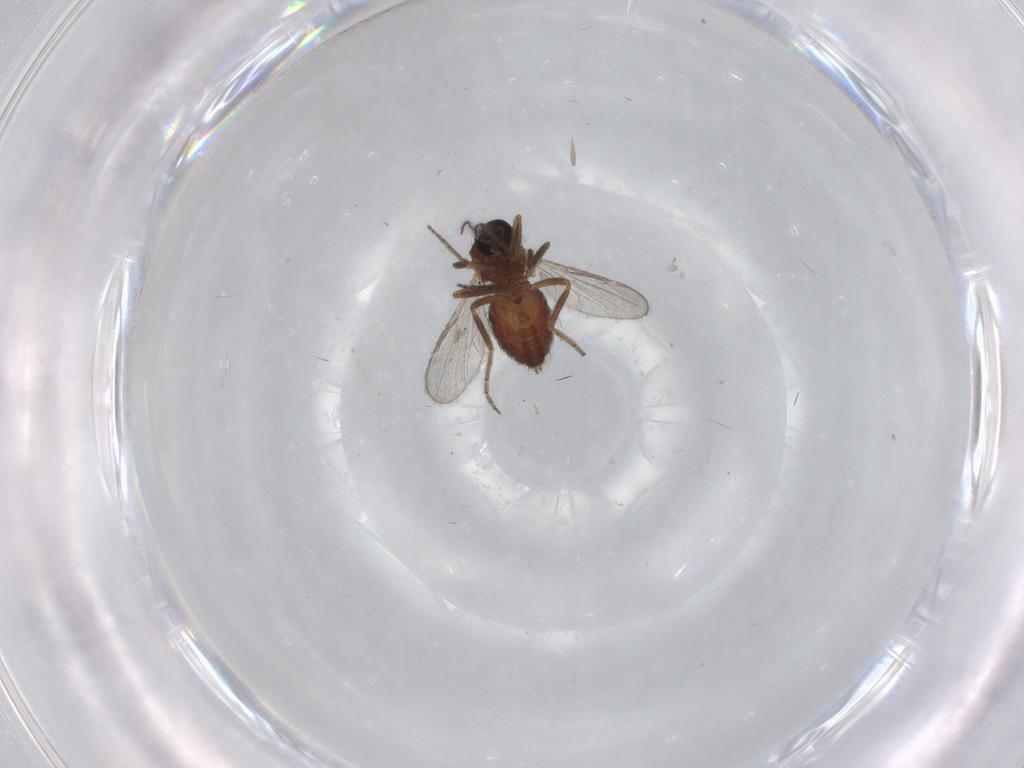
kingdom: Animalia
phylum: Arthropoda
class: Insecta
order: Diptera
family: Ceratopogonidae
